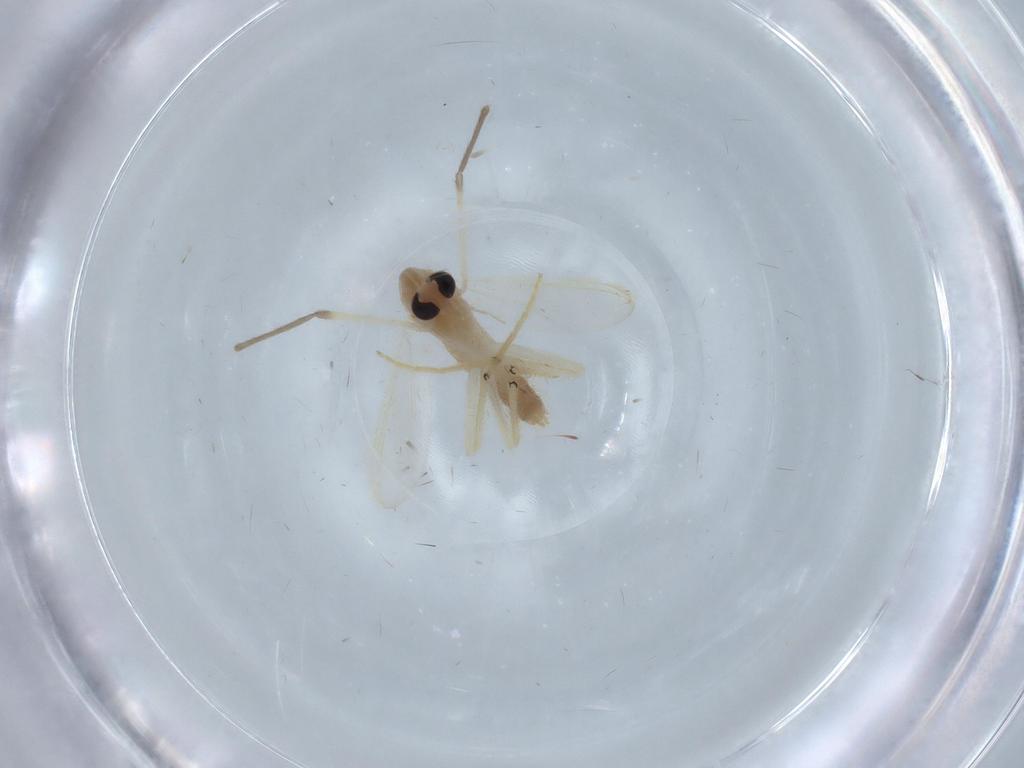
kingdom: Animalia
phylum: Arthropoda
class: Insecta
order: Diptera
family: Chironomidae
